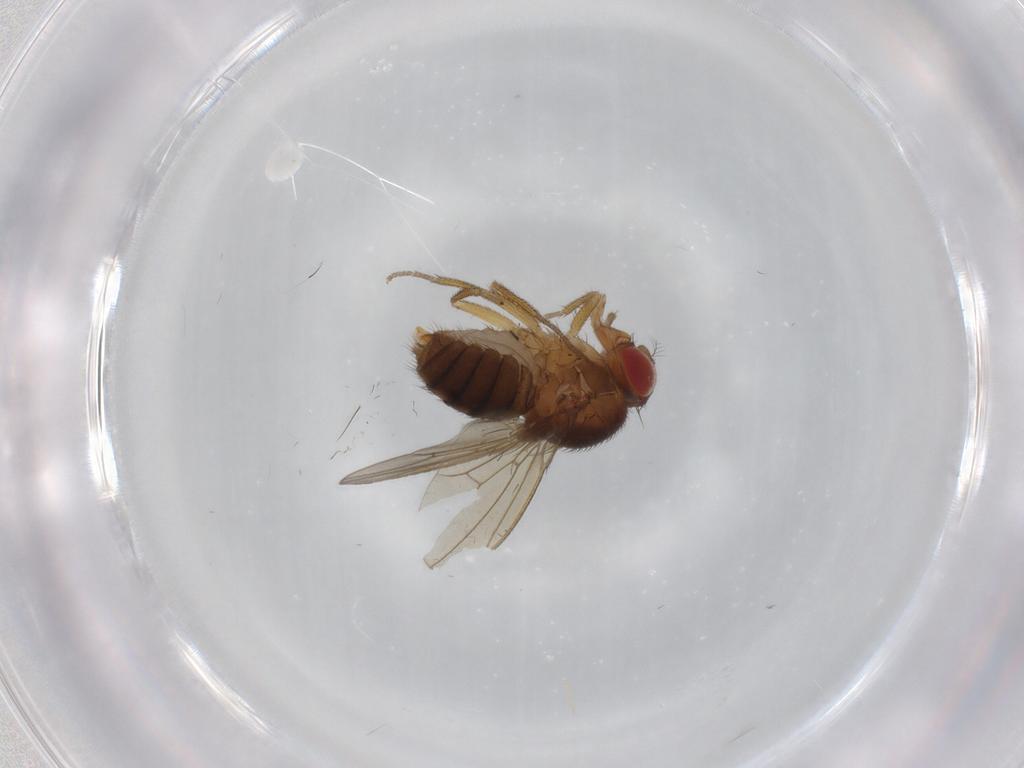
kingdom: Animalia
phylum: Arthropoda
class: Insecta
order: Diptera
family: Drosophilidae
